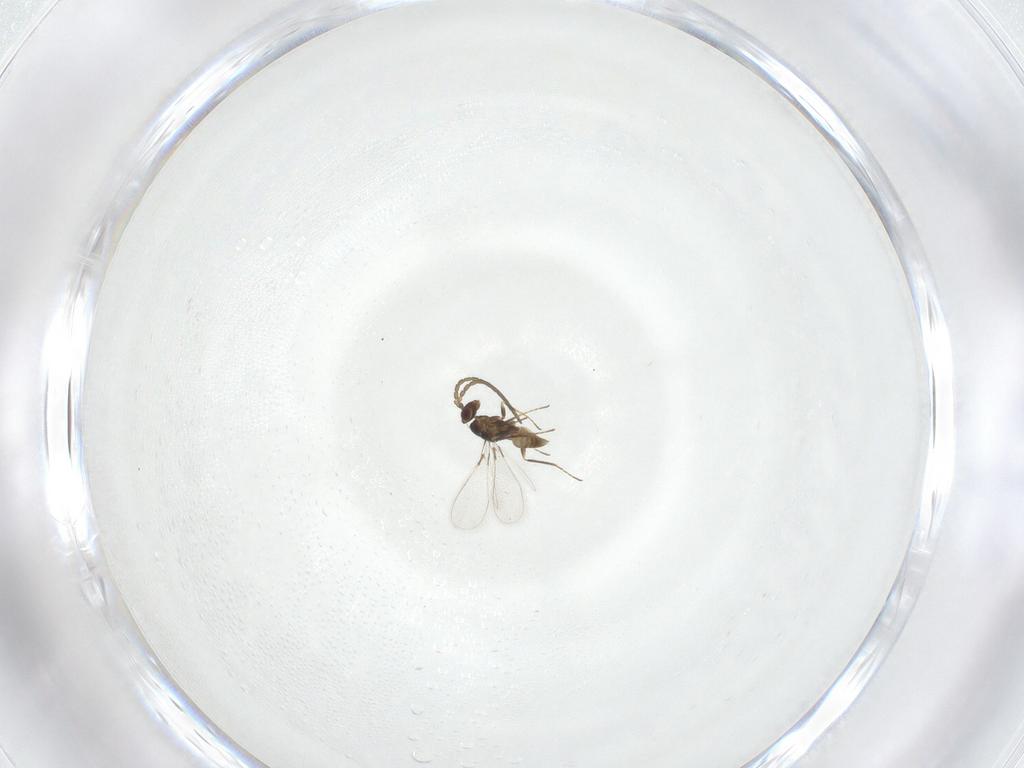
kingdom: Animalia
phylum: Arthropoda
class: Insecta
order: Hymenoptera
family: Mymaridae
